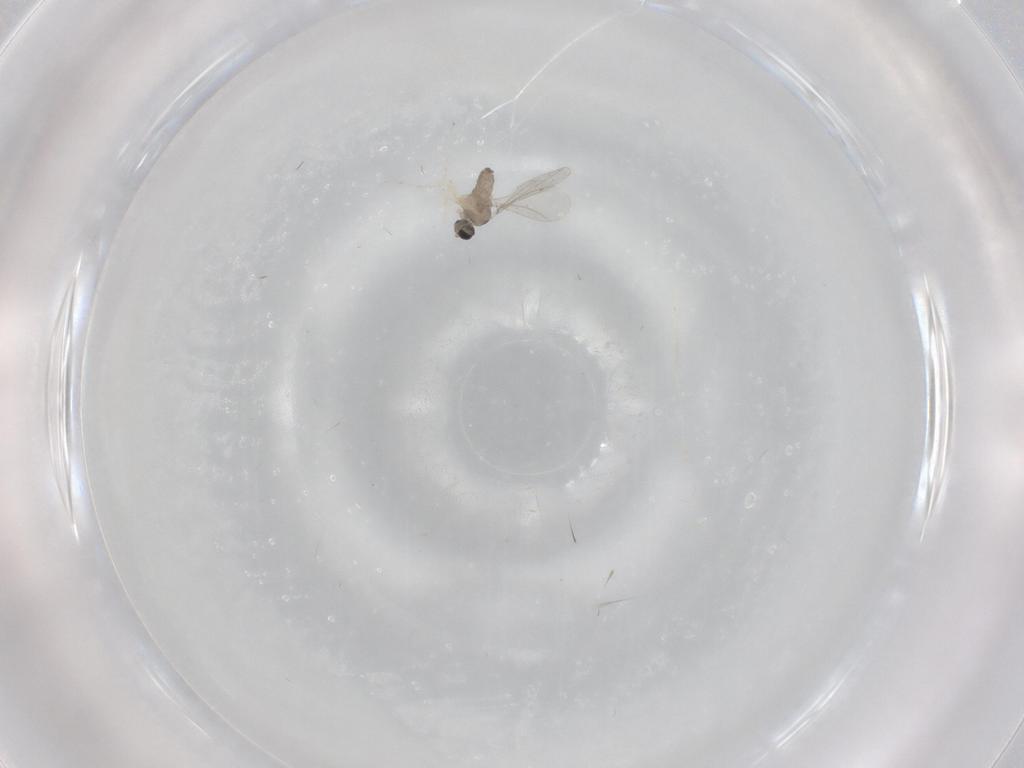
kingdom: Animalia
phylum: Arthropoda
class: Insecta
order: Diptera
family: Cecidomyiidae
